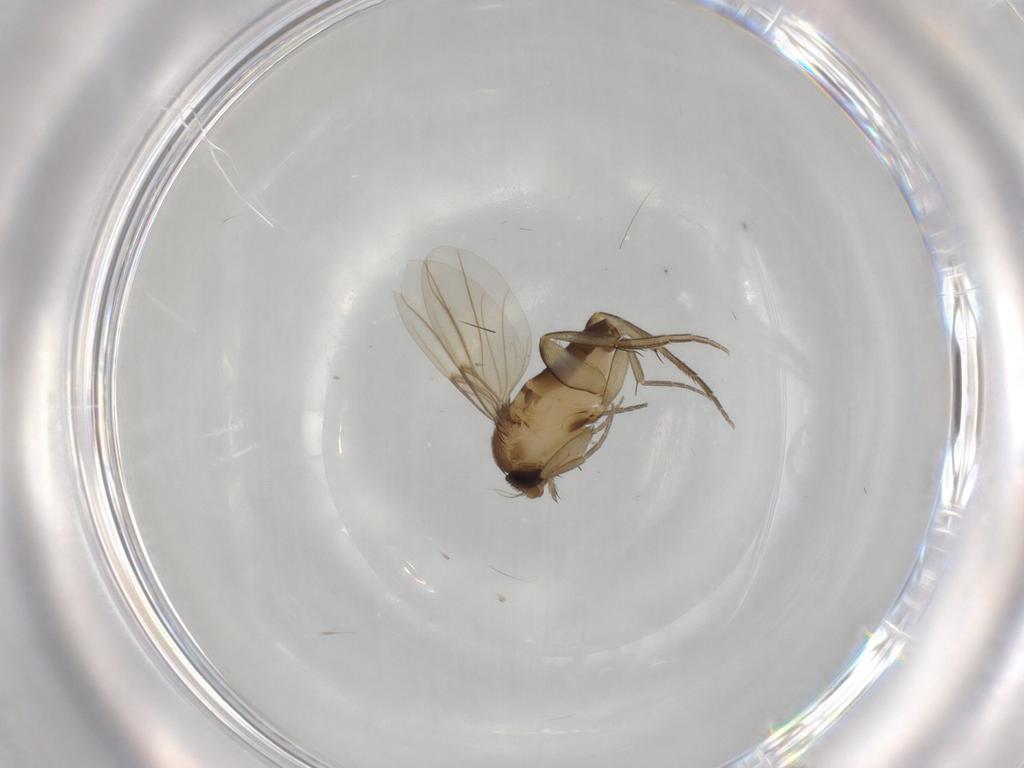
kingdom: Animalia
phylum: Arthropoda
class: Insecta
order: Diptera
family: Phoridae
